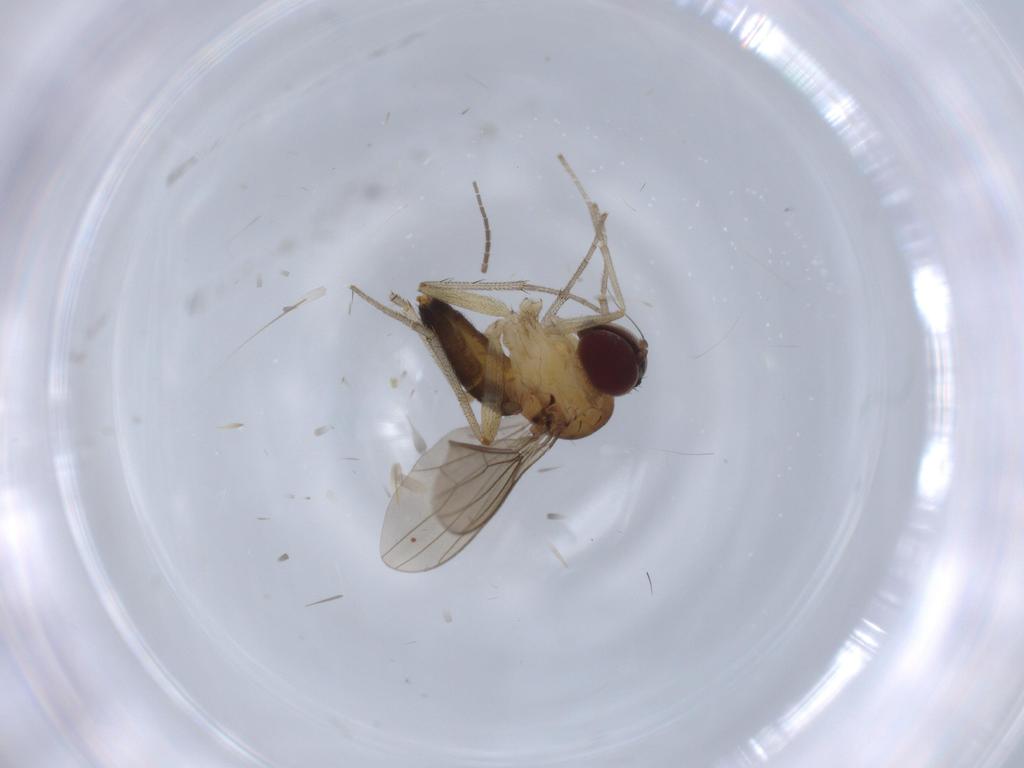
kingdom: Animalia
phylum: Arthropoda
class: Insecta
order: Diptera
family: Sciaridae
